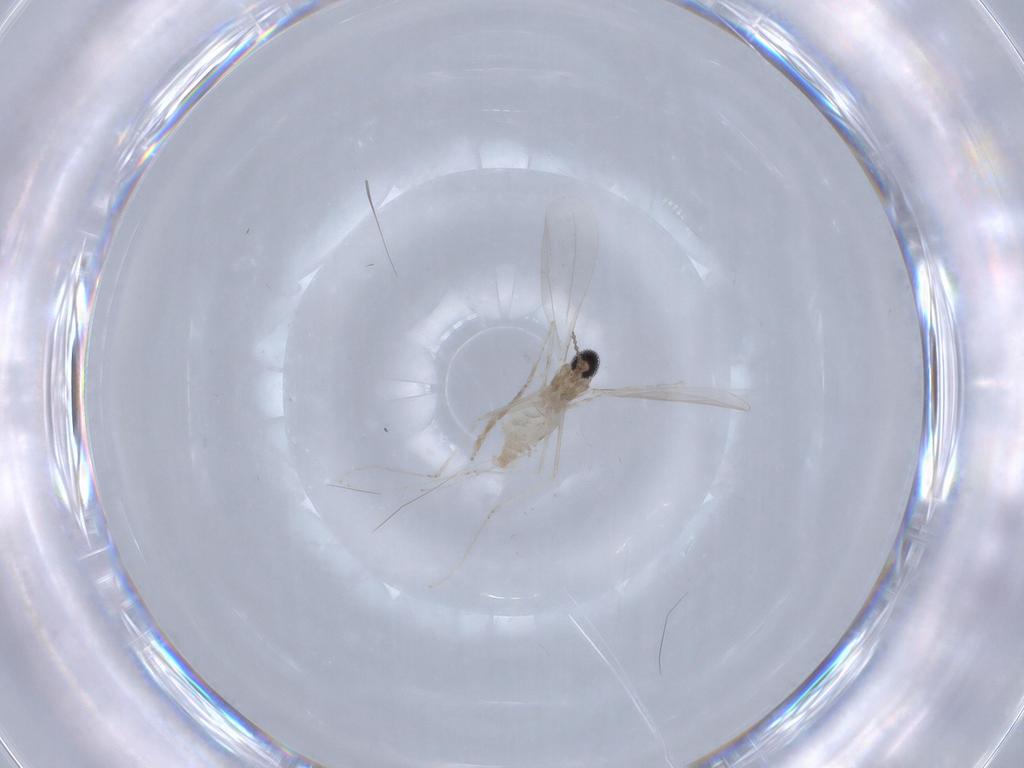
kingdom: Animalia
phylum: Arthropoda
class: Insecta
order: Diptera
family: Cecidomyiidae
